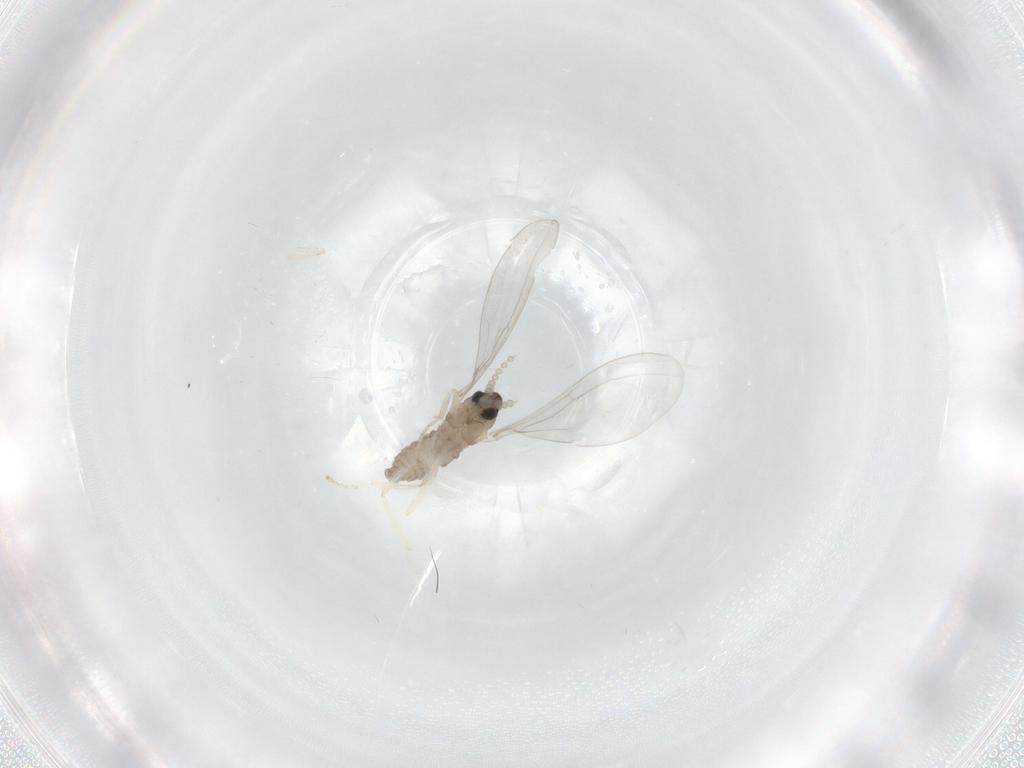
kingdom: Animalia
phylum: Arthropoda
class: Insecta
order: Diptera
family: Cecidomyiidae
